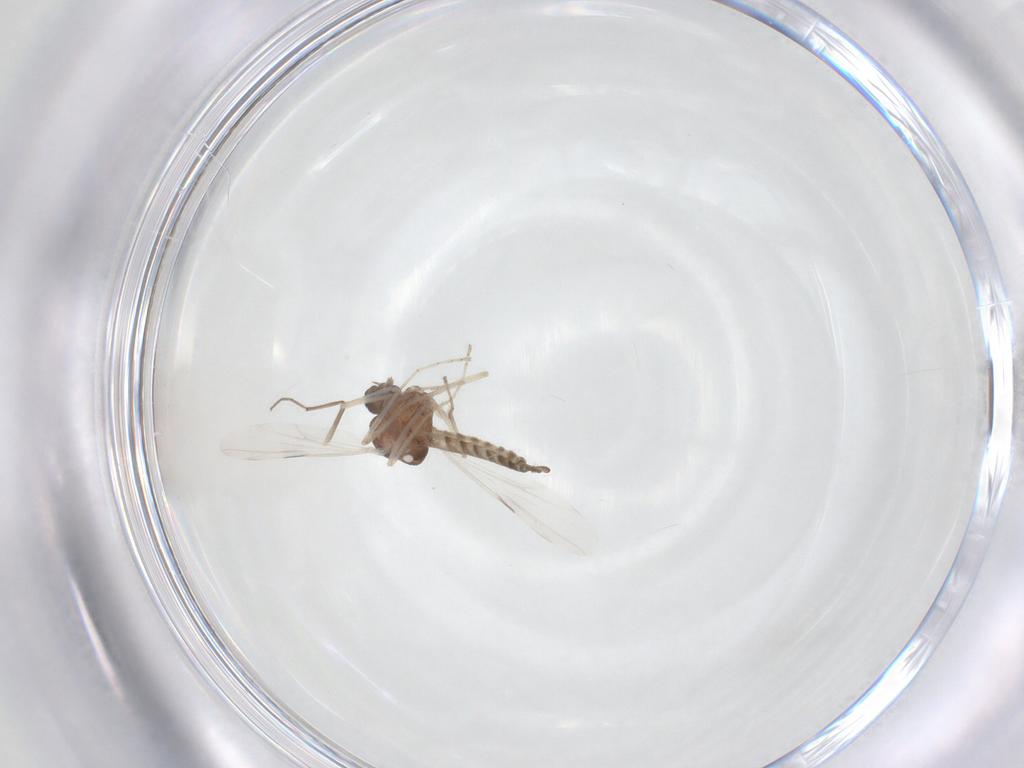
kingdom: Animalia
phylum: Arthropoda
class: Insecta
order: Diptera
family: Ceratopogonidae
